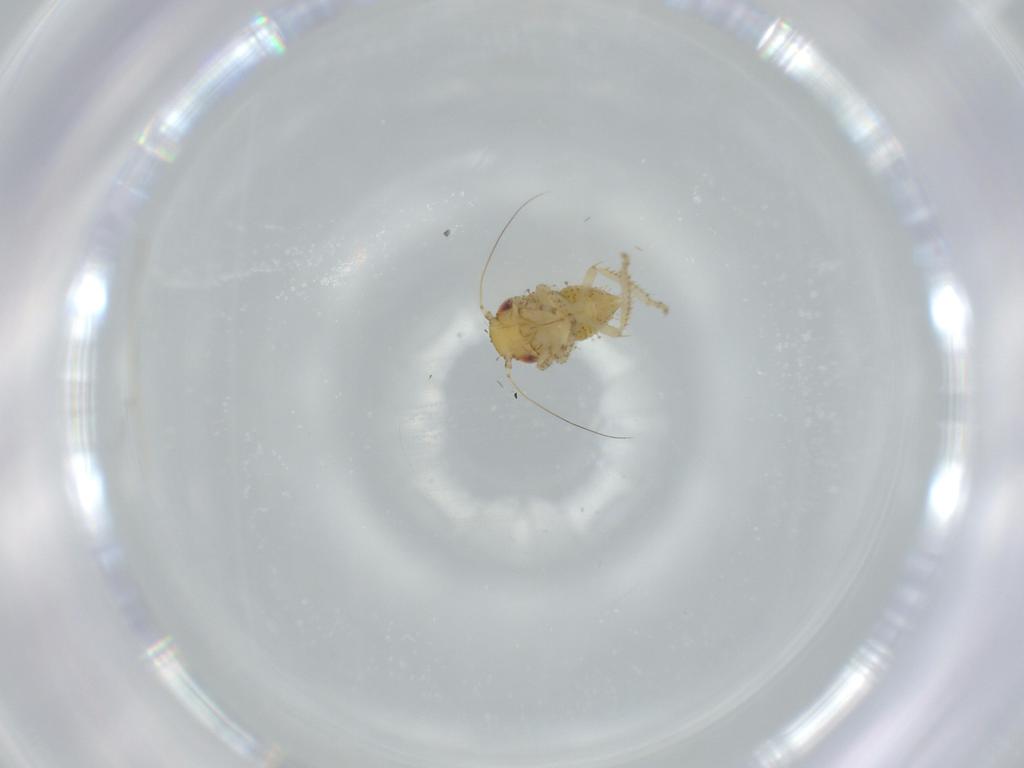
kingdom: Animalia
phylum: Arthropoda
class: Insecta
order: Hemiptera
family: Cicadellidae
